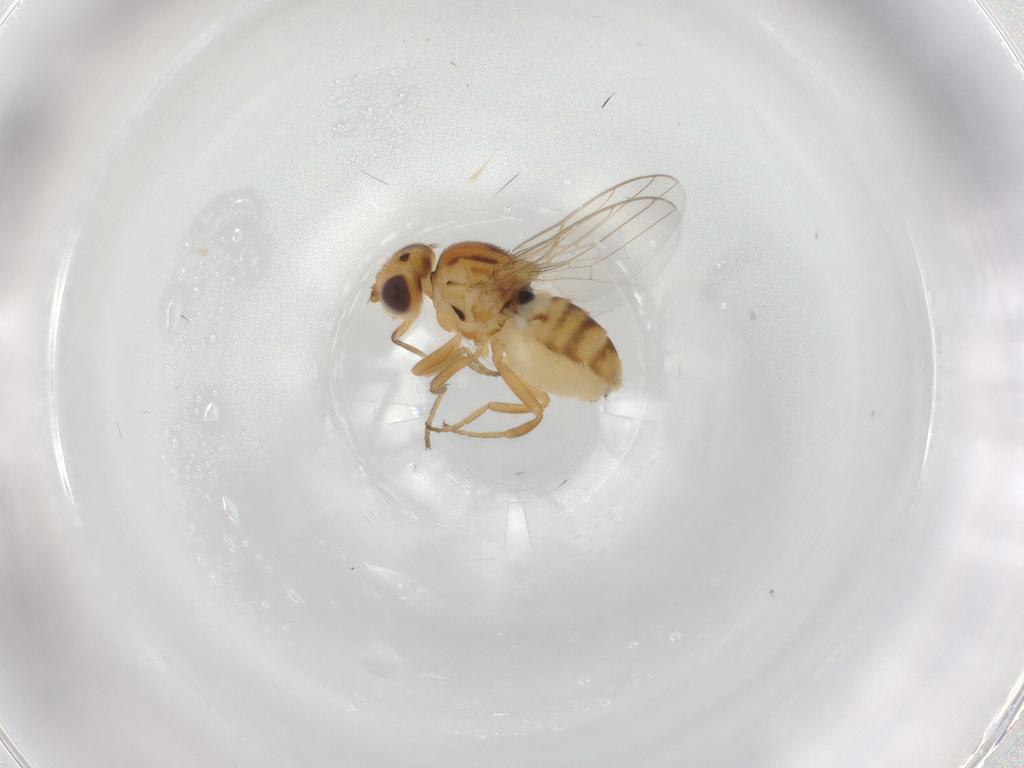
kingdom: Animalia
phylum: Arthropoda
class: Insecta
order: Diptera
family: Chloropidae
